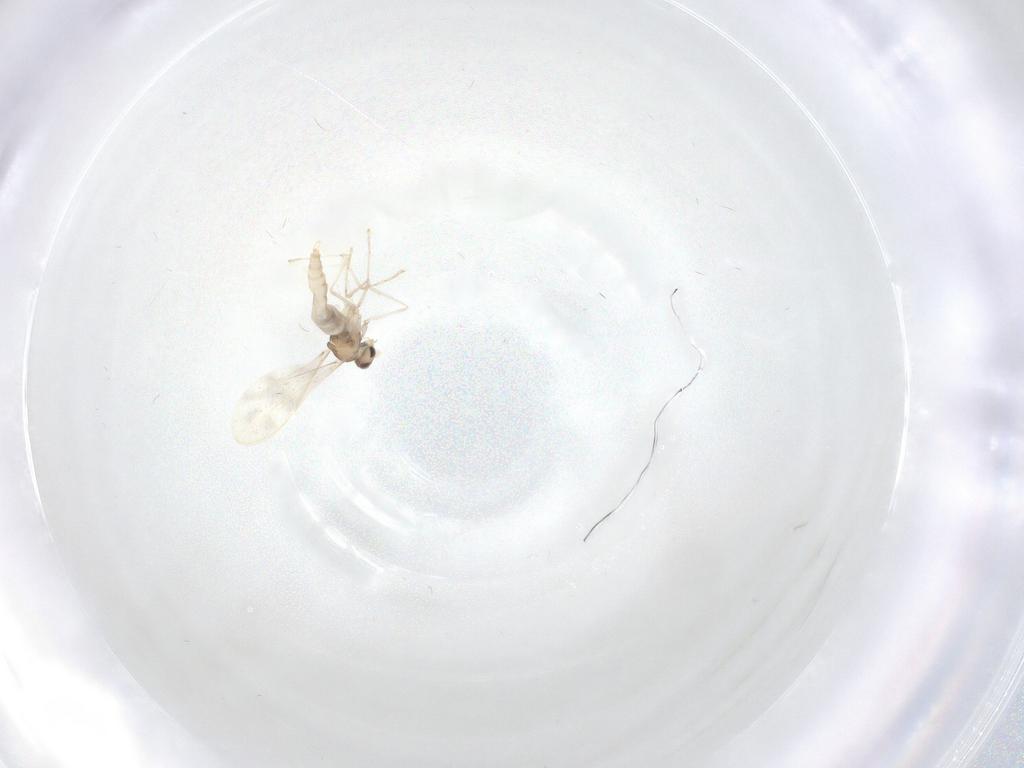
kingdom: Animalia
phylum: Arthropoda
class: Insecta
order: Diptera
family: Cecidomyiidae
